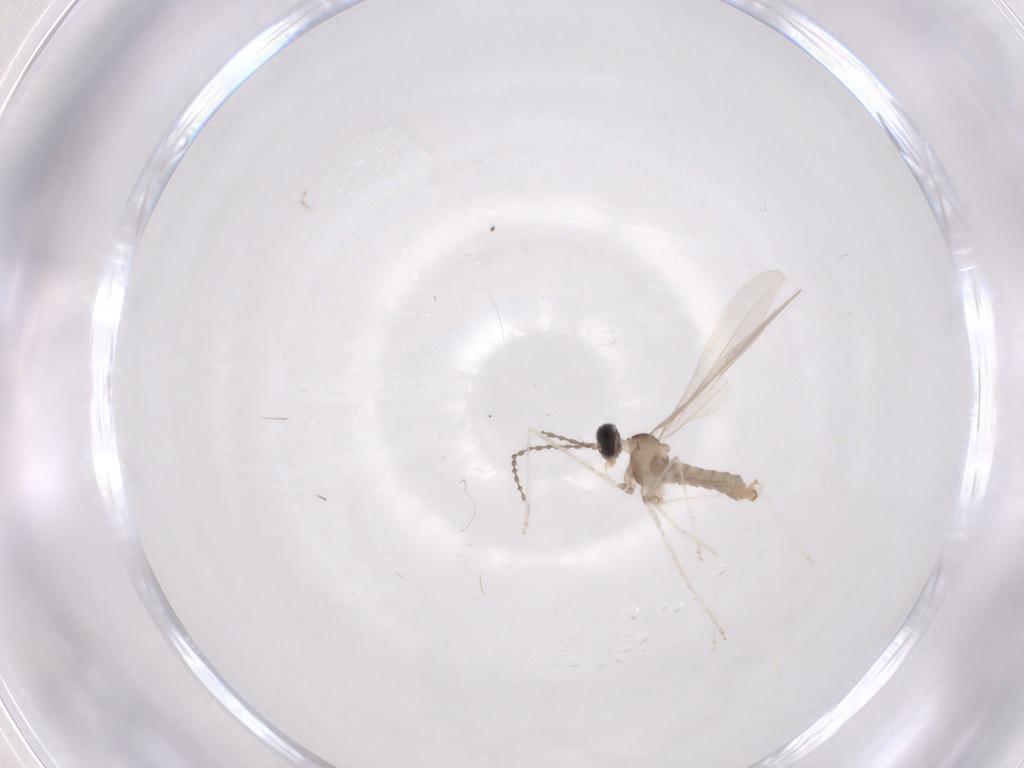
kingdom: Animalia
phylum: Arthropoda
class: Insecta
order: Diptera
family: Cecidomyiidae
